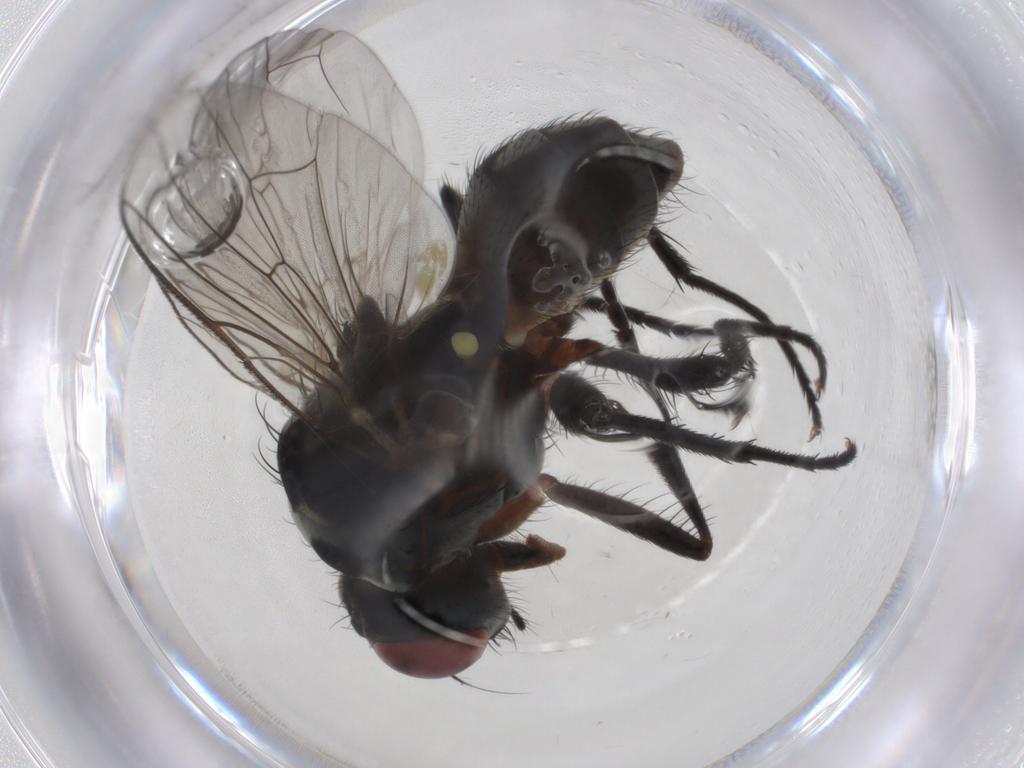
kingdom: Animalia
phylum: Arthropoda
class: Insecta
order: Diptera
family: Anthomyiidae
